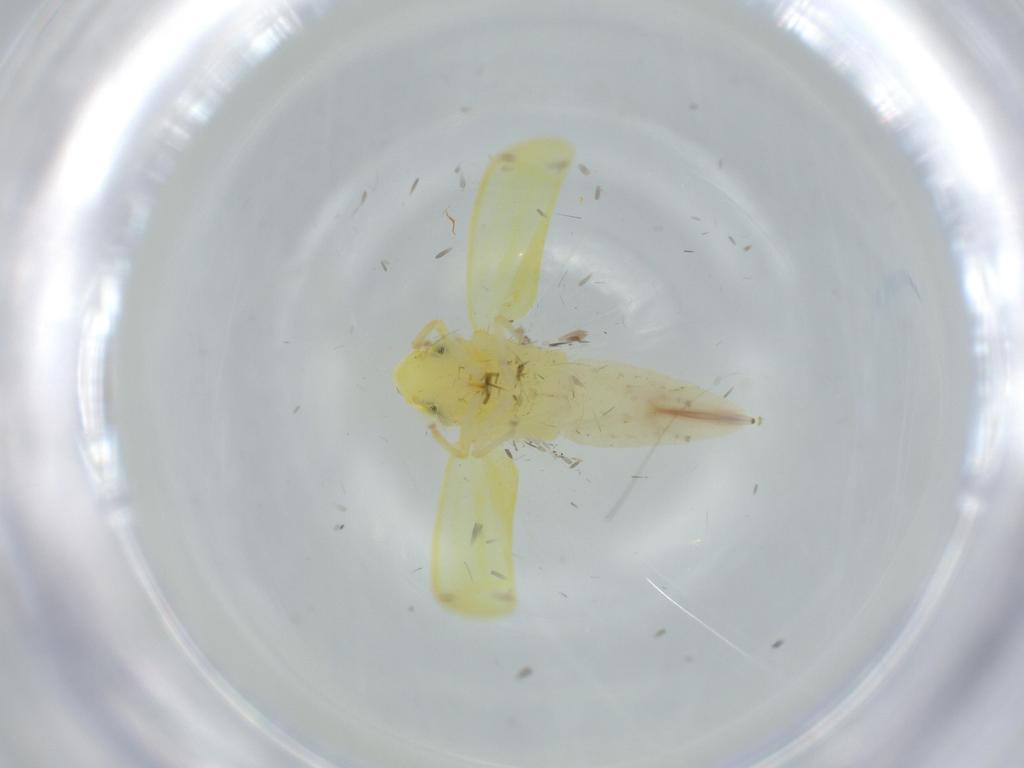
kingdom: Animalia
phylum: Arthropoda
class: Insecta
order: Hemiptera
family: Cicadellidae
